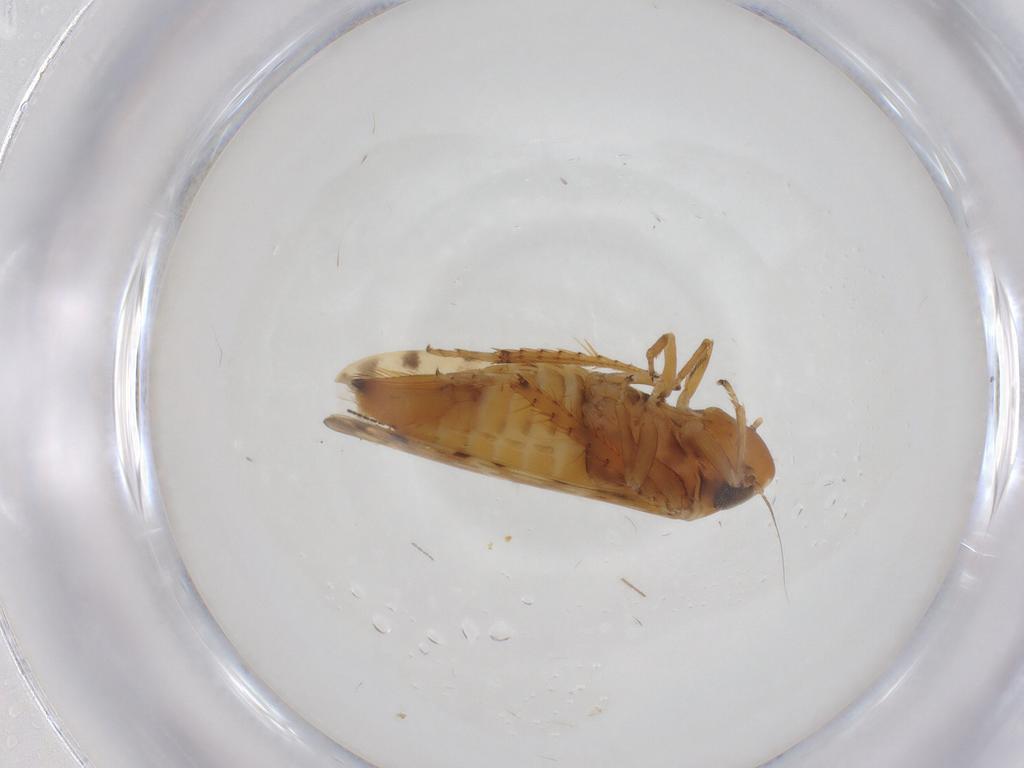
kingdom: Animalia
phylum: Arthropoda
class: Insecta
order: Hemiptera
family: Cicadellidae
